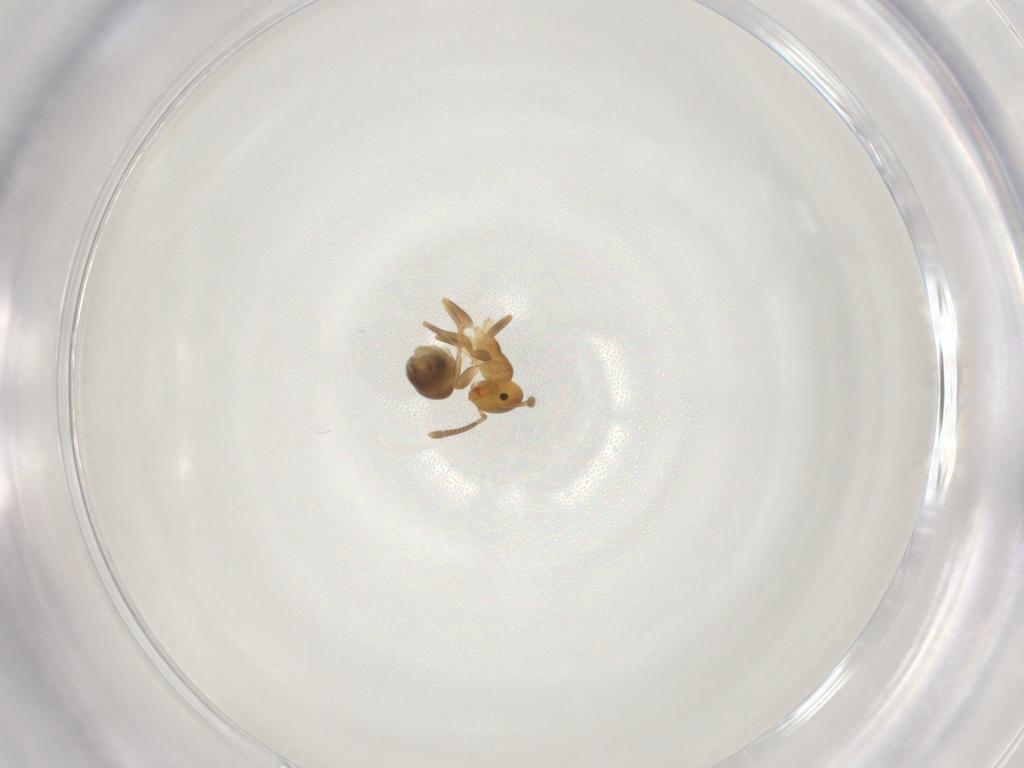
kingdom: Animalia
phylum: Arthropoda
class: Insecta
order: Hymenoptera
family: Formicidae
